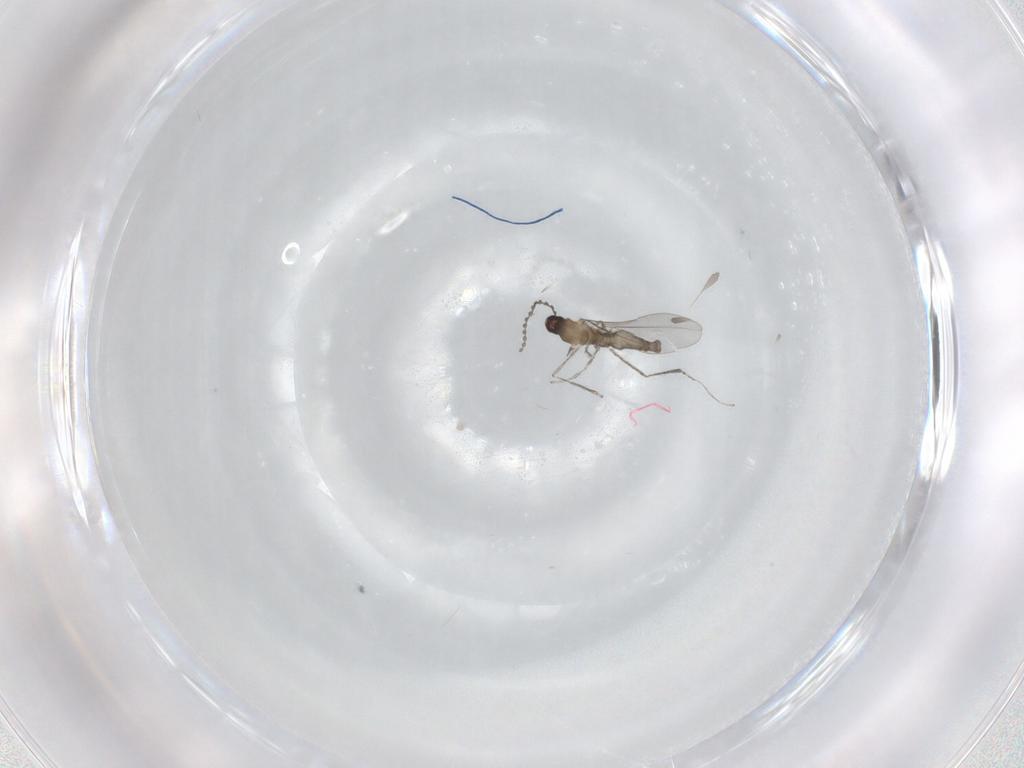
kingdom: Animalia
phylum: Arthropoda
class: Insecta
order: Diptera
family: Cecidomyiidae
